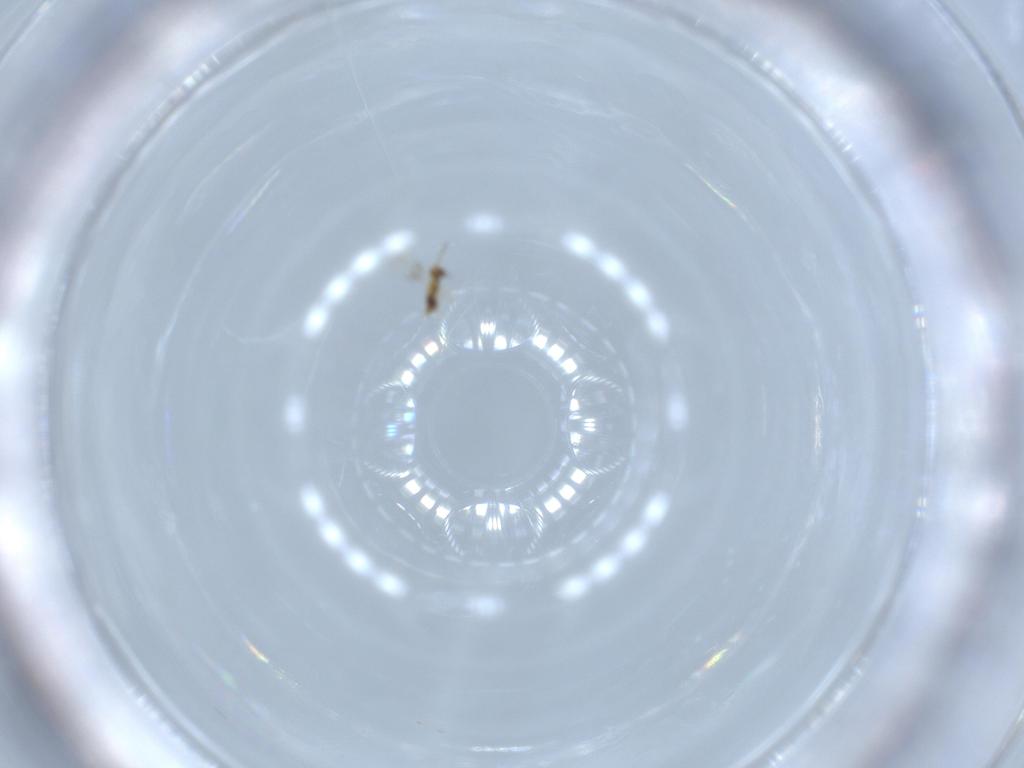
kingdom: Animalia
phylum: Arthropoda
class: Insecta
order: Hymenoptera
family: Aphelinidae
